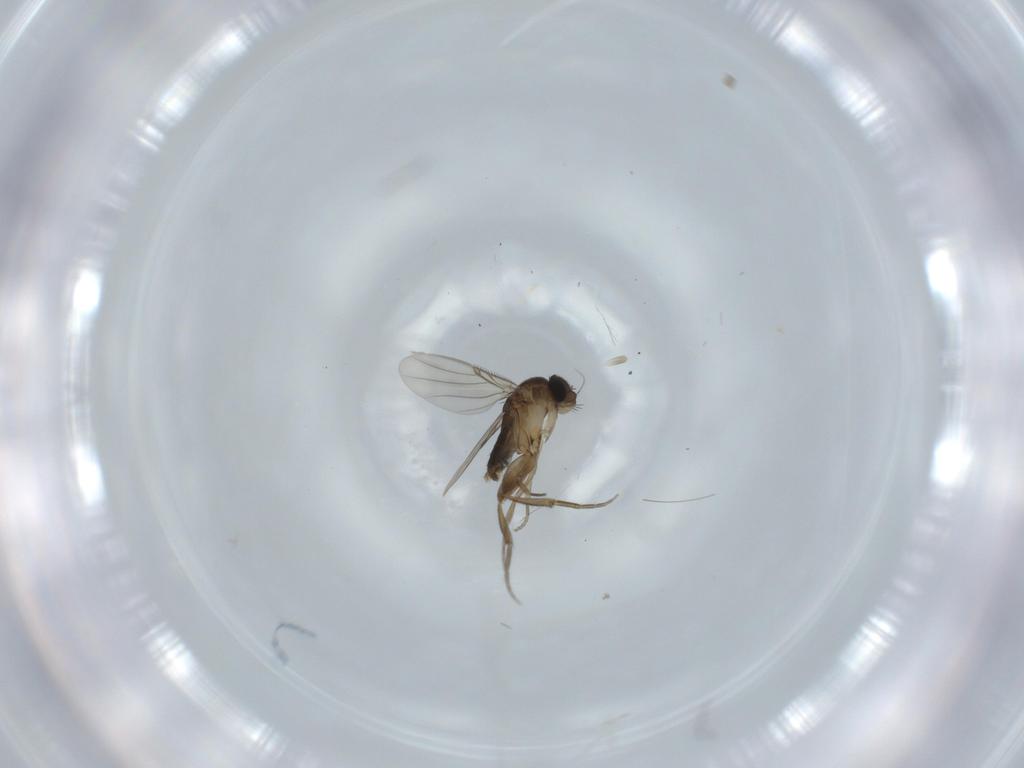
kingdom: Animalia
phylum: Arthropoda
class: Insecta
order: Diptera
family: Phoridae
